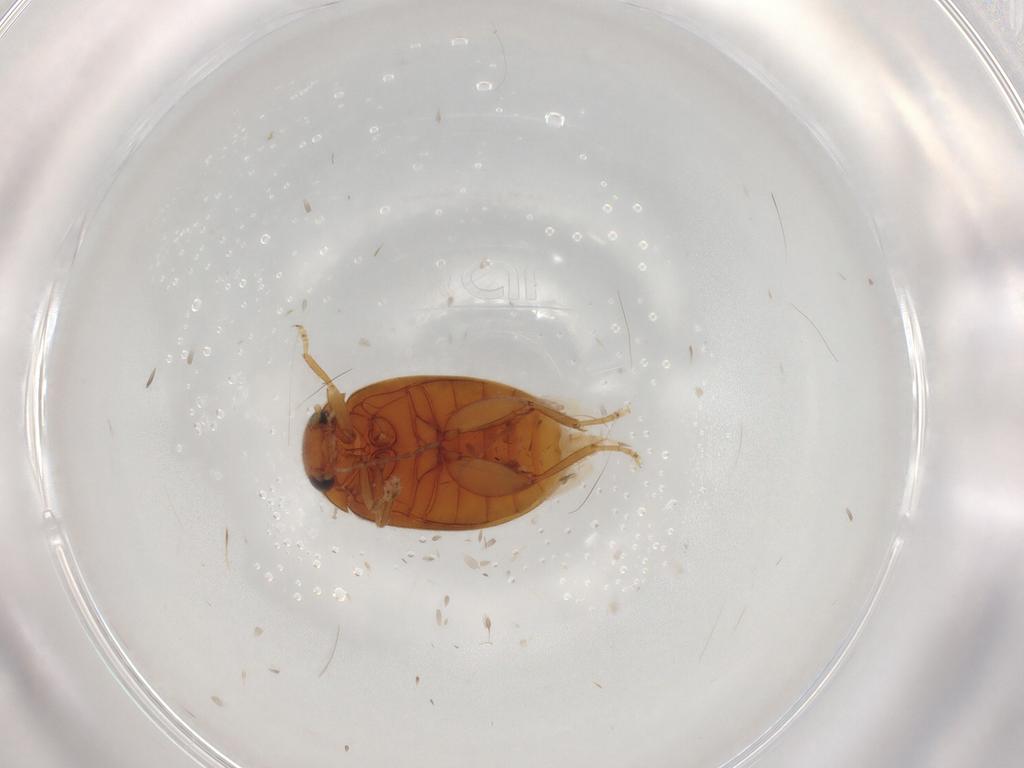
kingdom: Animalia
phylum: Arthropoda
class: Insecta
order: Coleoptera
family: Scirtidae
